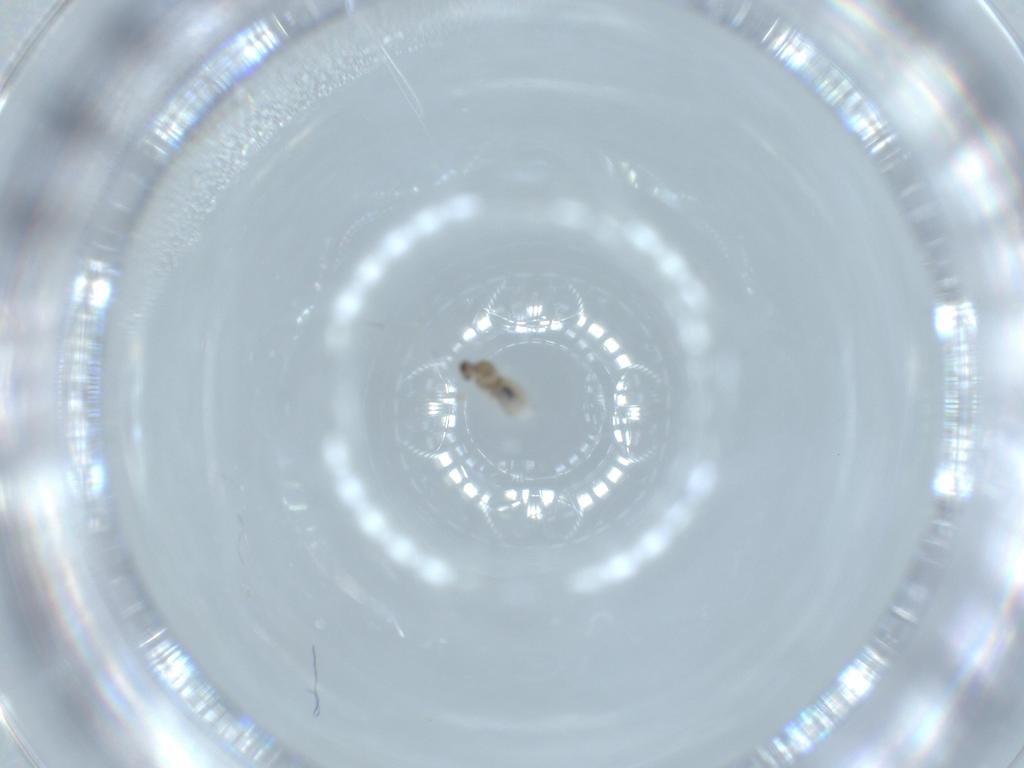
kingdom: Animalia
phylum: Arthropoda
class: Insecta
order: Diptera
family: Cecidomyiidae
